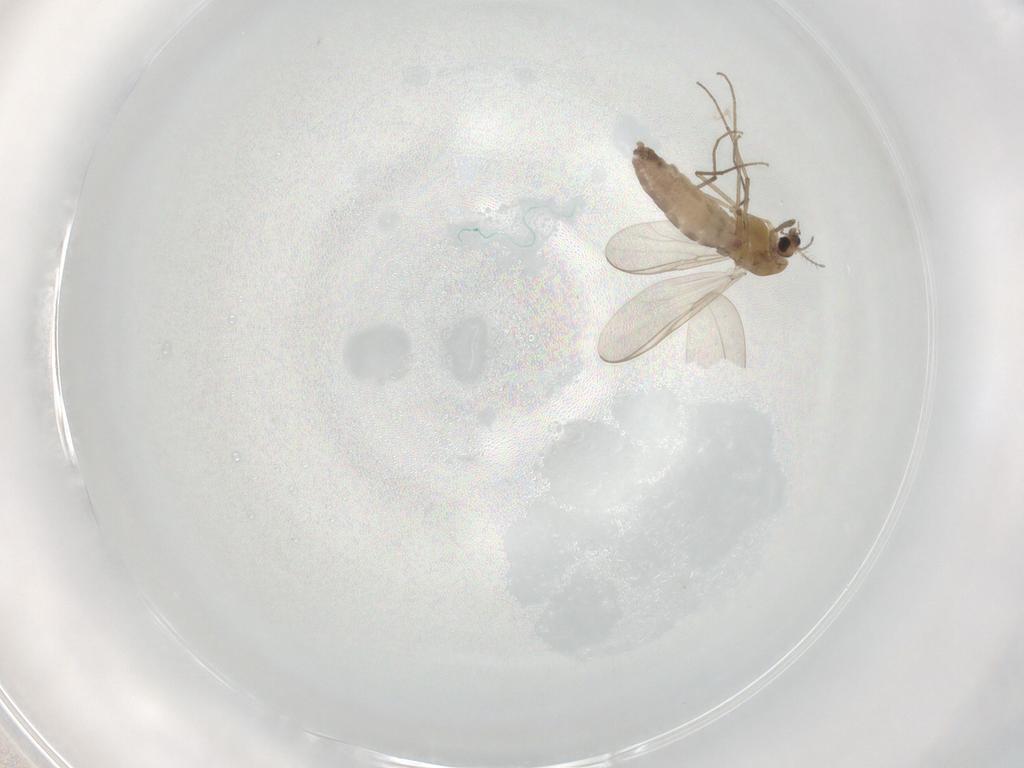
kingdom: Animalia
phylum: Arthropoda
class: Insecta
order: Diptera
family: Chironomidae
